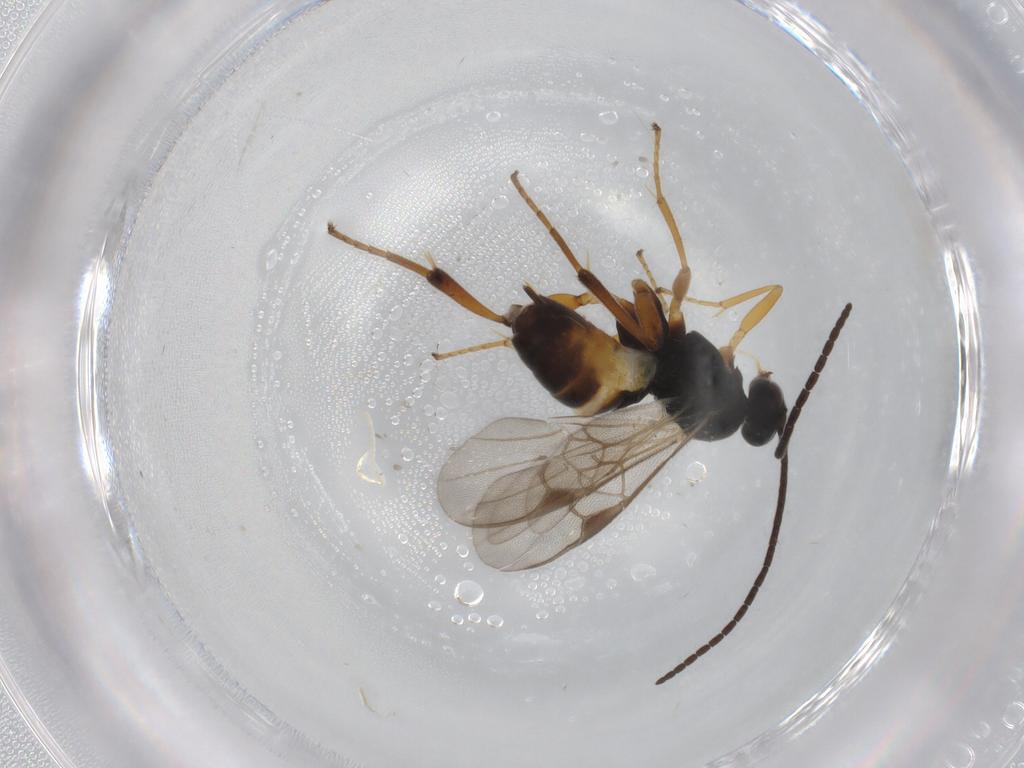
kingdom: Animalia
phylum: Arthropoda
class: Insecta
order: Hymenoptera
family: Braconidae
